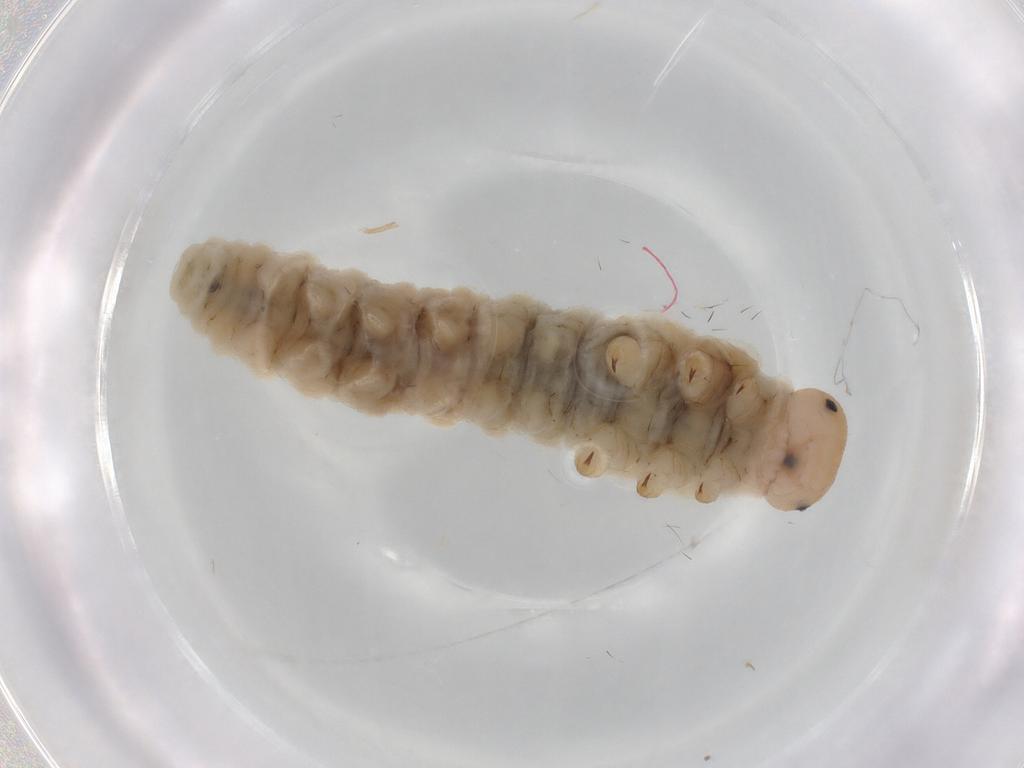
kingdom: Animalia
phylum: Arthropoda
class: Insecta
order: Hymenoptera
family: Tenthredinidae
